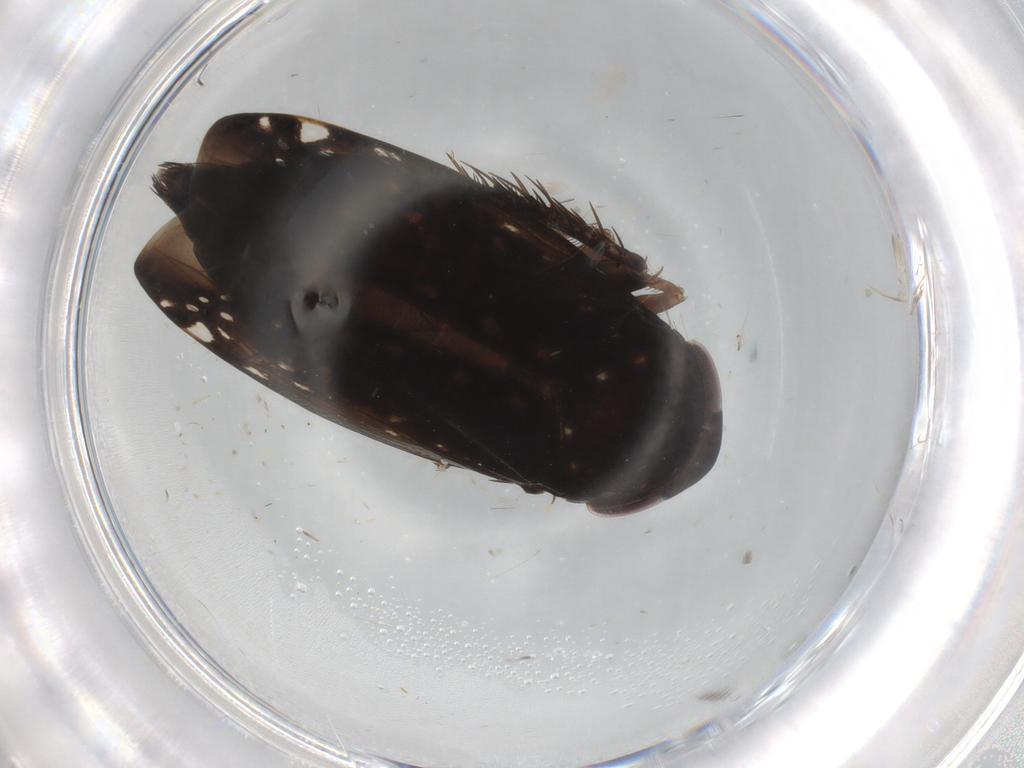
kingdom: Animalia
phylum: Arthropoda
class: Insecta
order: Hemiptera
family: Cicadellidae
